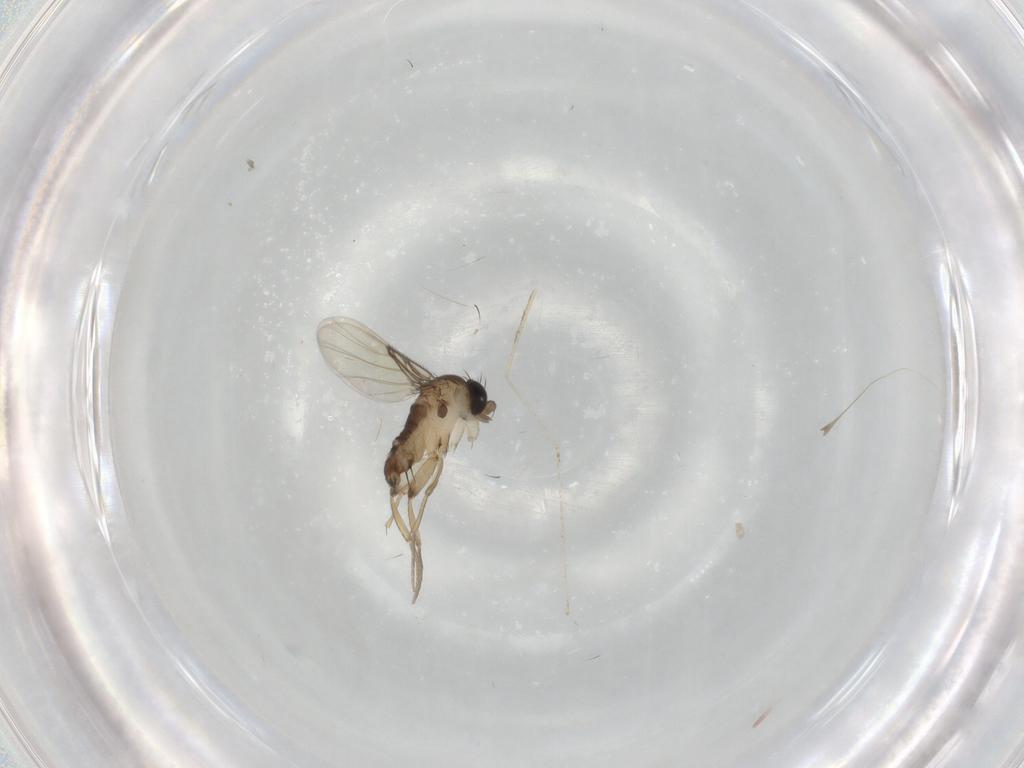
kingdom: Animalia
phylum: Arthropoda
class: Insecta
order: Diptera
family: Phoridae
